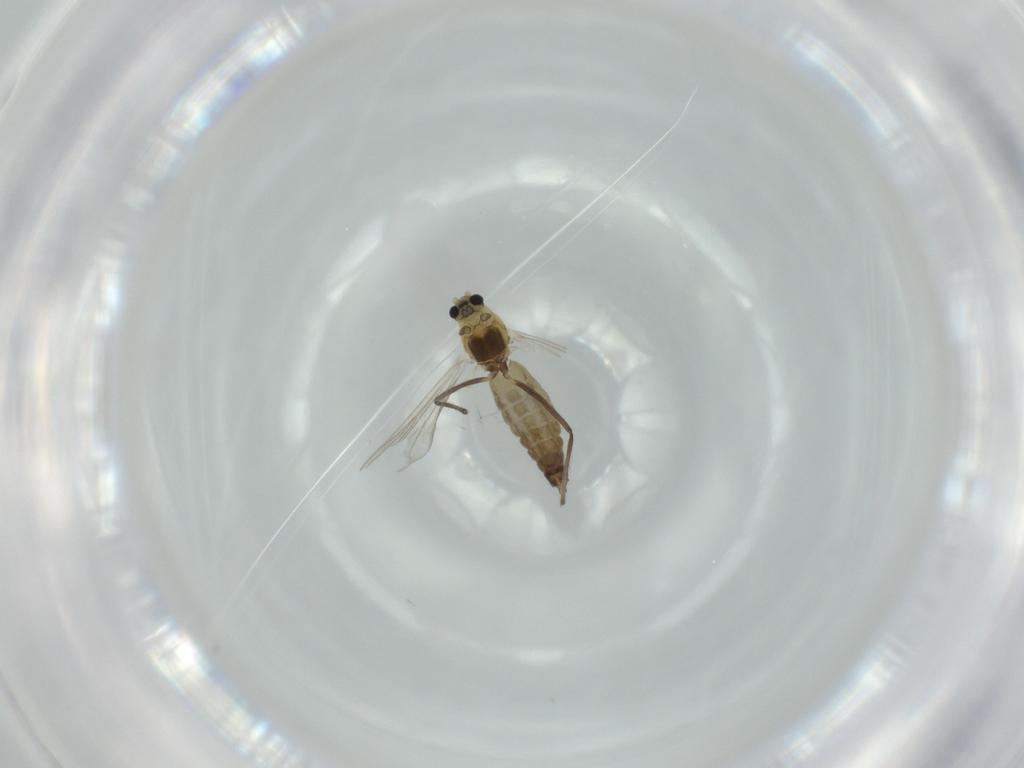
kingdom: Animalia
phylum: Arthropoda
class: Insecta
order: Diptera
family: Chironomidae
